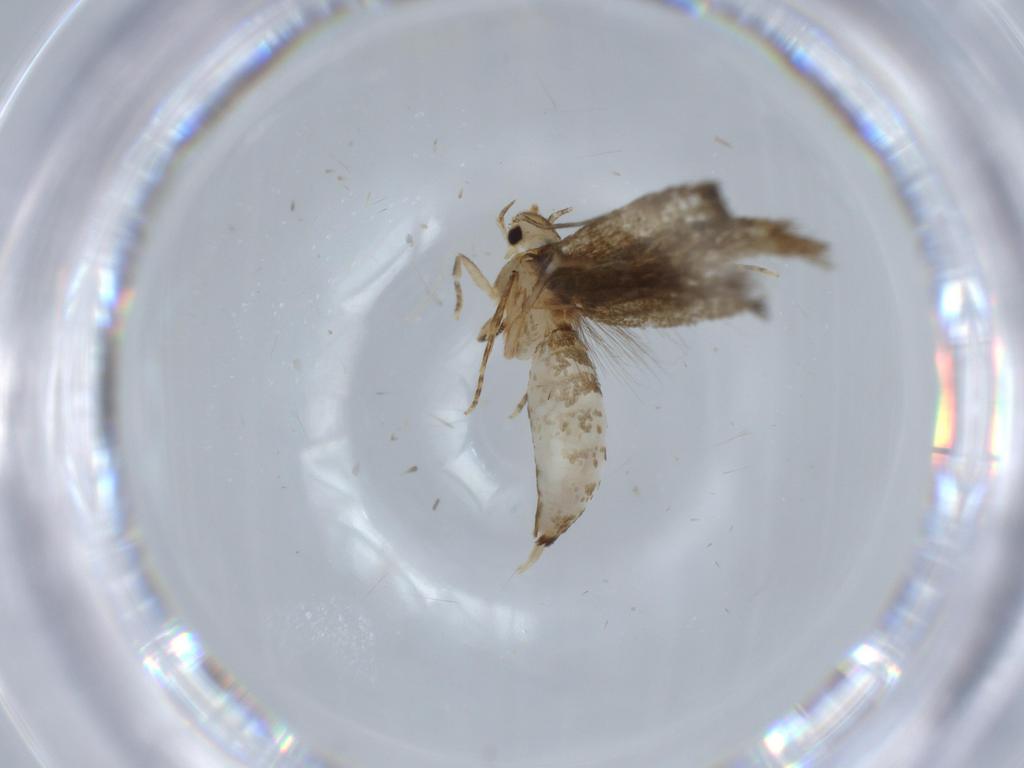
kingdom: Animalia
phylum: Arthropoda
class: Insecta
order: Lepidoptera
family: Tineidae
